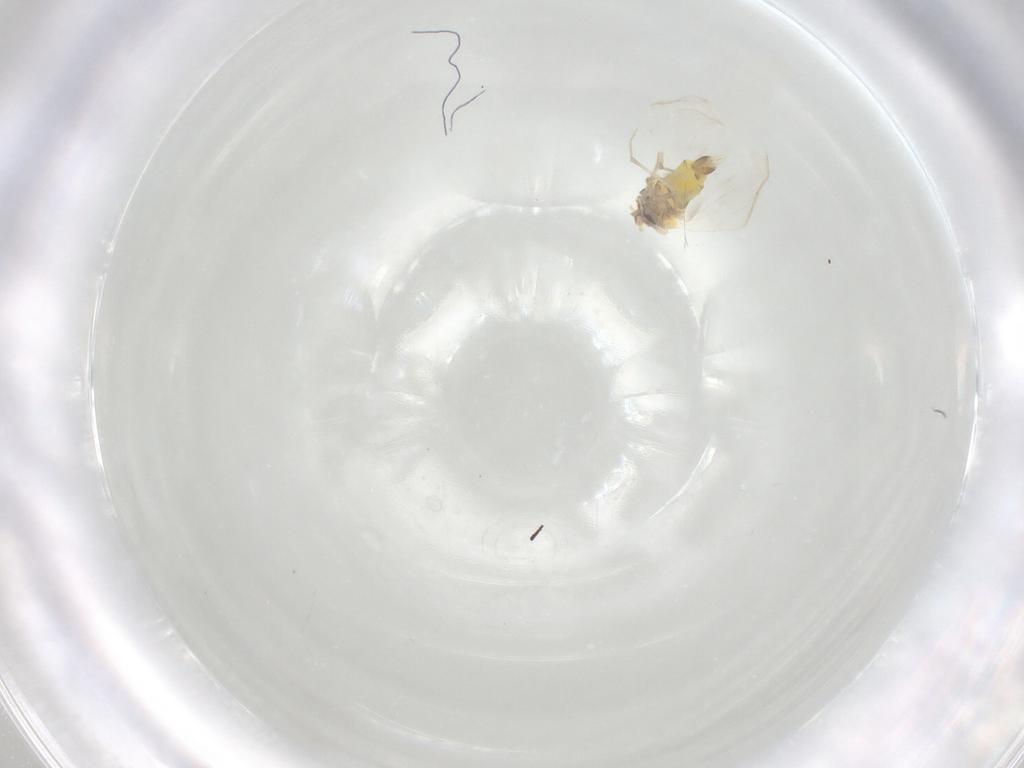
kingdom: Animalia
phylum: Arthropoda
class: Insecta
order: Hemiptera
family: Aleyrodidae
